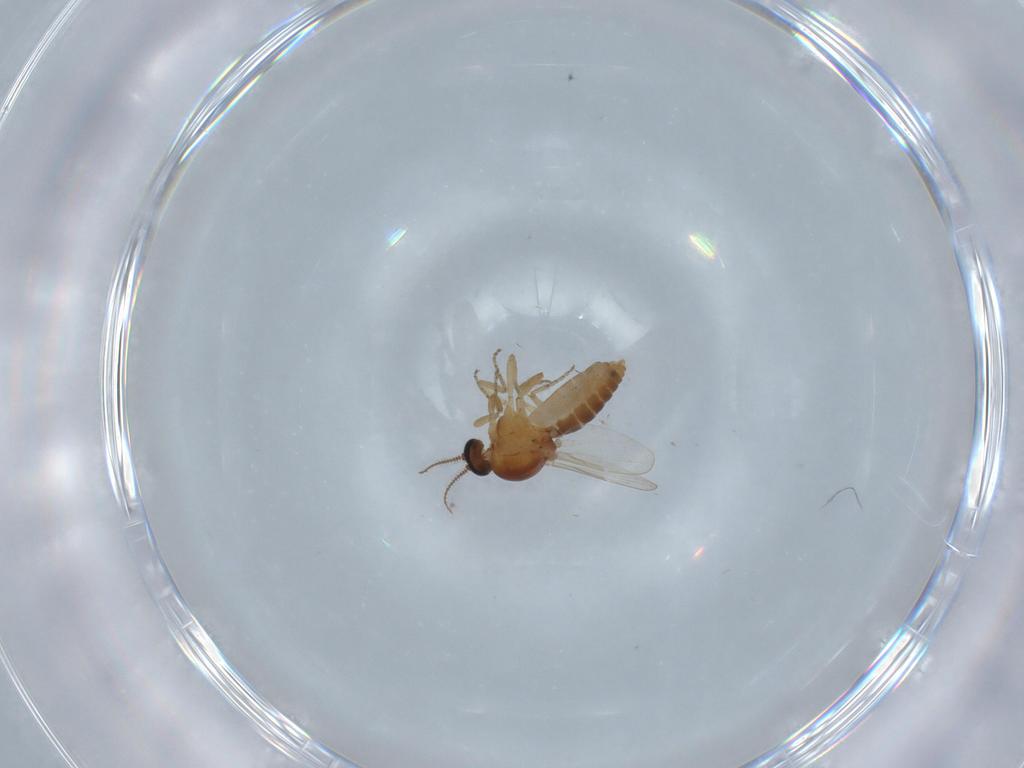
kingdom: Animalia
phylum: Arthropoda
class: Insecta
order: Diptera
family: Ceratopogonidae
